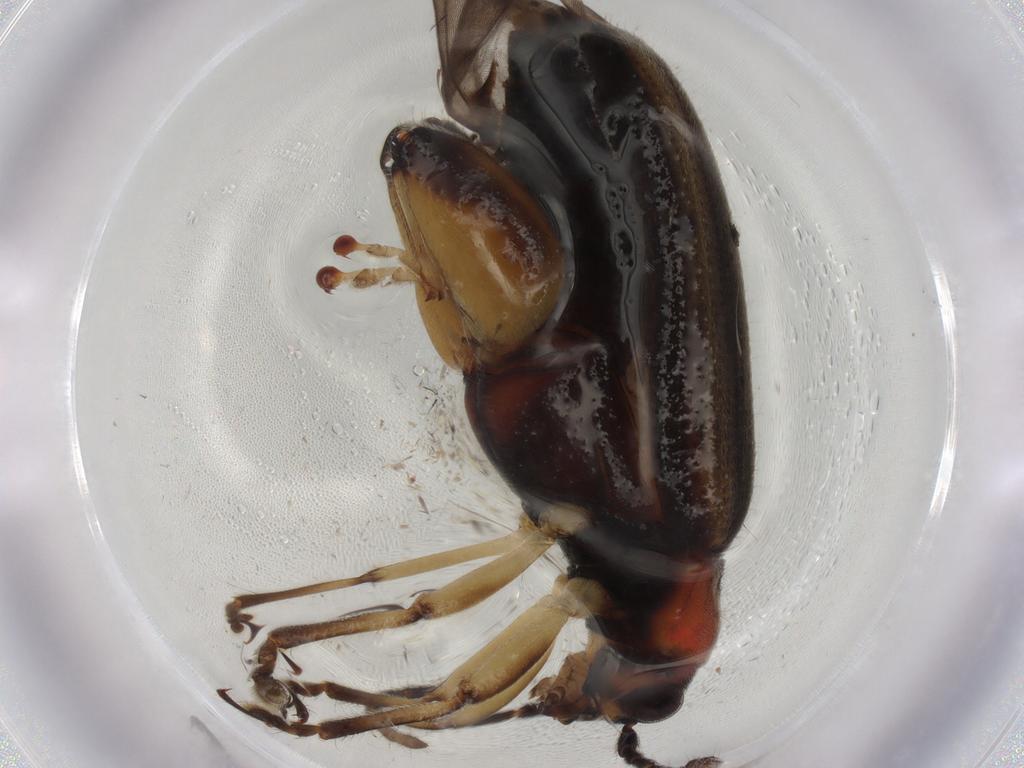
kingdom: Animalia
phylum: Arthropoda
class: Insecta
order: Coleoptera
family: Chrysomelidae
